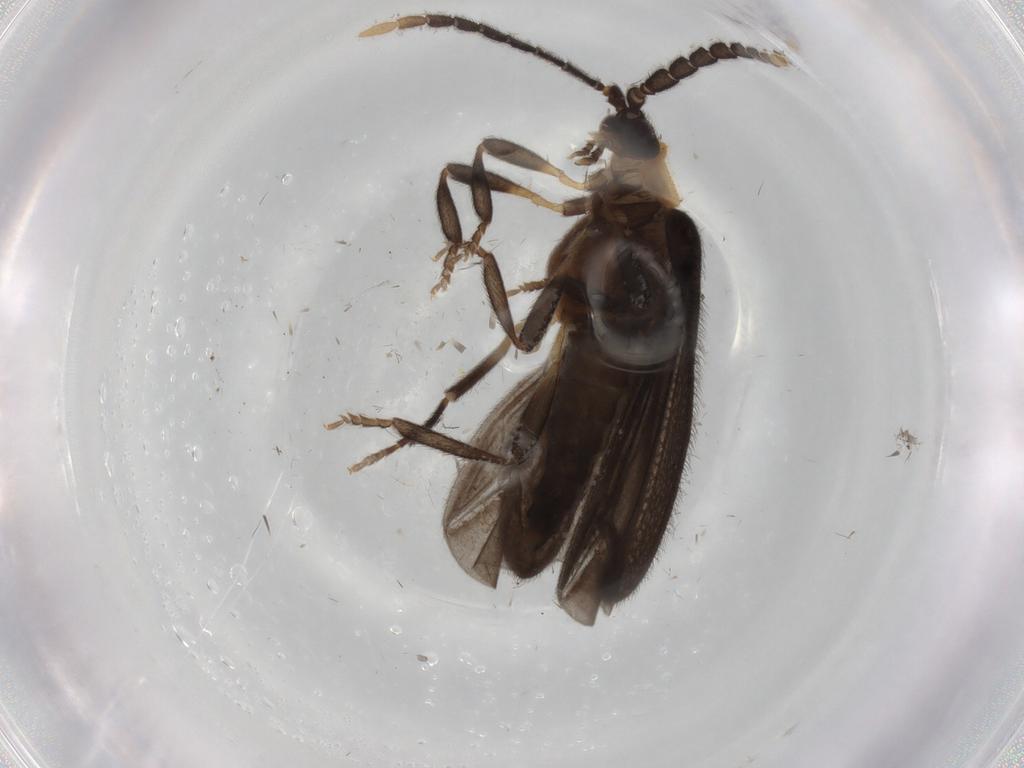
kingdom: Animalia
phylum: Arthropoda
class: Insecta
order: Coleoptera
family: Lycidae
